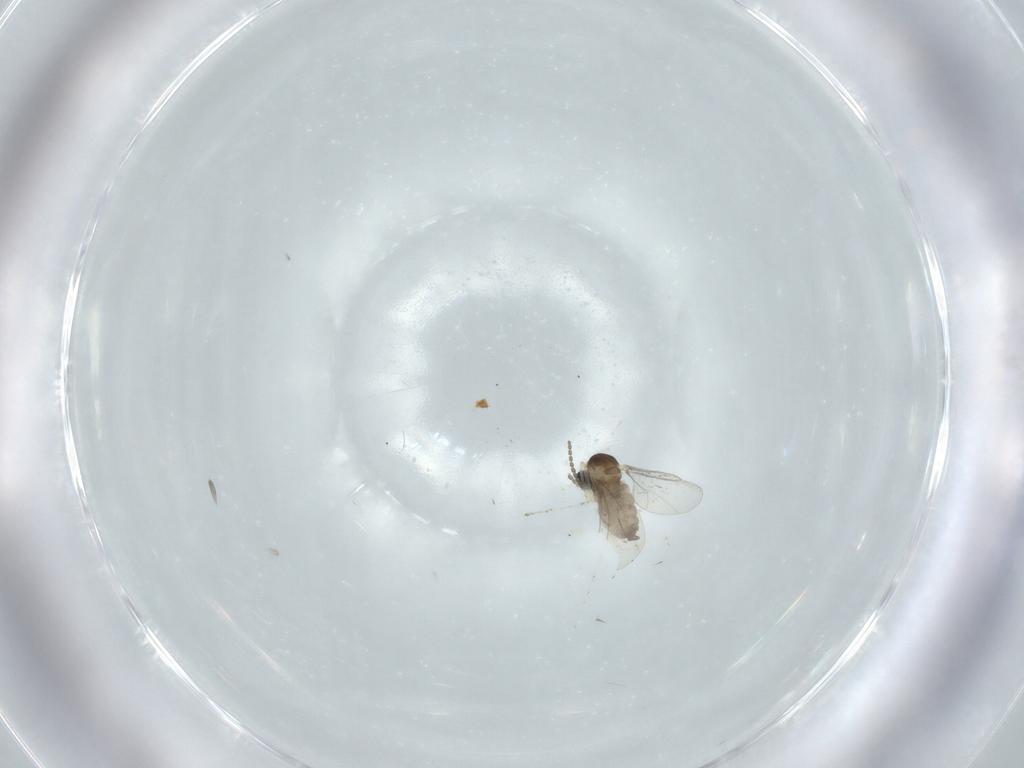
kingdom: Animalia
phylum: Arthropoda
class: Insecta
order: Diptera
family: Cecidomyiidae
